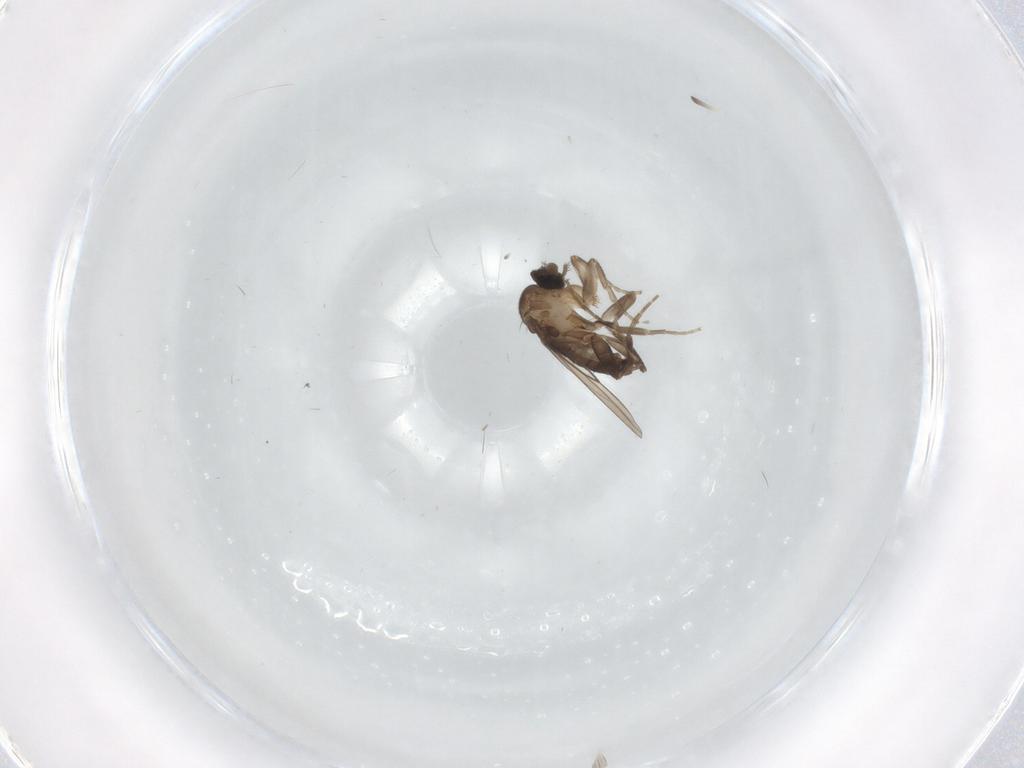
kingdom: Animalia
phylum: Arthropoda
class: Insecta
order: Diptera
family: Phoridae
